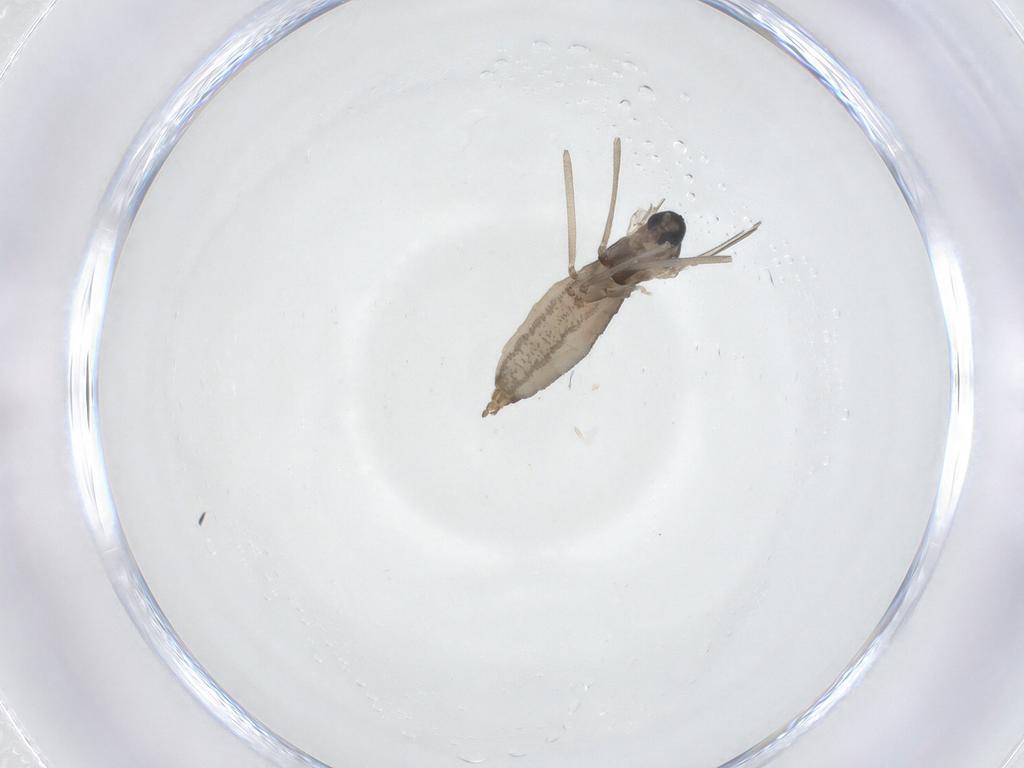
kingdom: Animalia
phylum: Arthropoda
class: Insecta
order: Diptera
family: Cecidomyiidae
